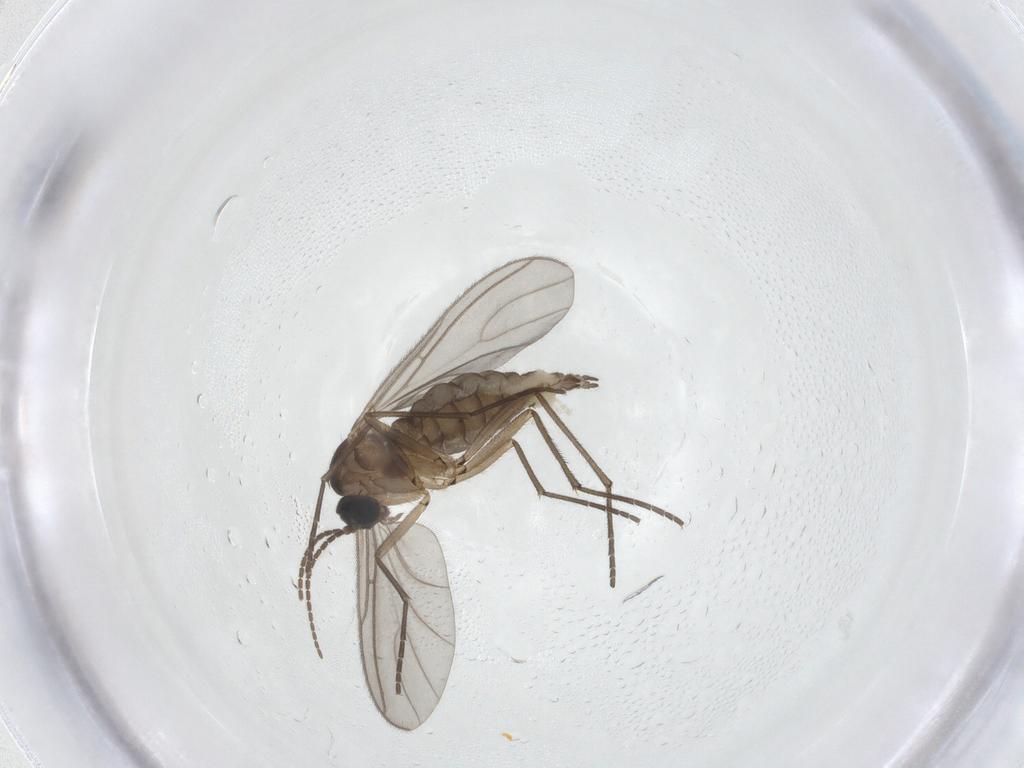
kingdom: Animalia
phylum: Arthropoda
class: Insecta
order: Diptera
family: Sciaridae
